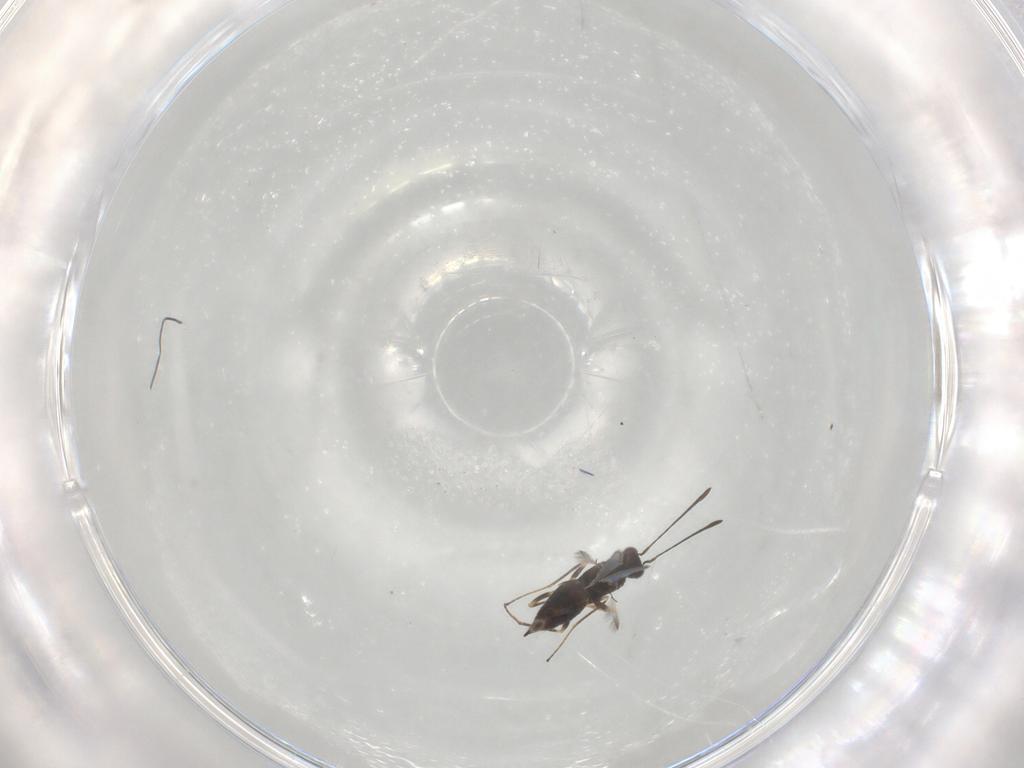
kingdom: Animalia
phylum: Arthropoda
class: Insecta
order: Hymenoptera
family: Mymaridae
